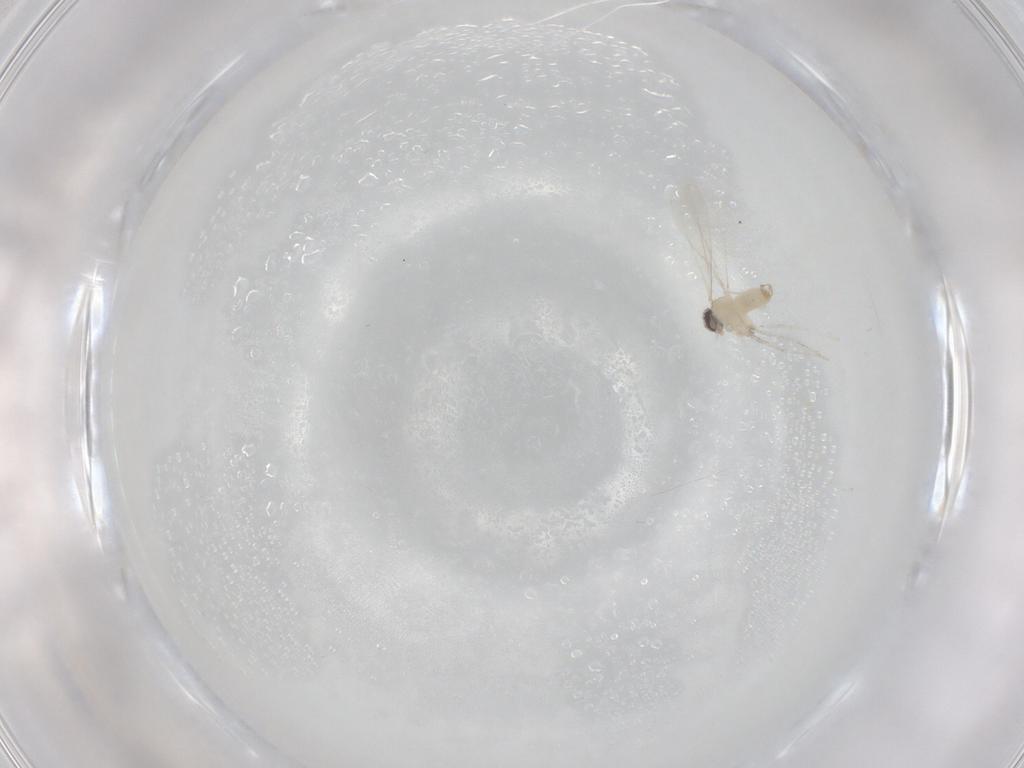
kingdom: Animalia
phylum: Arthropoda
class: Insecta
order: Diptera
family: Cecidomyiidae
